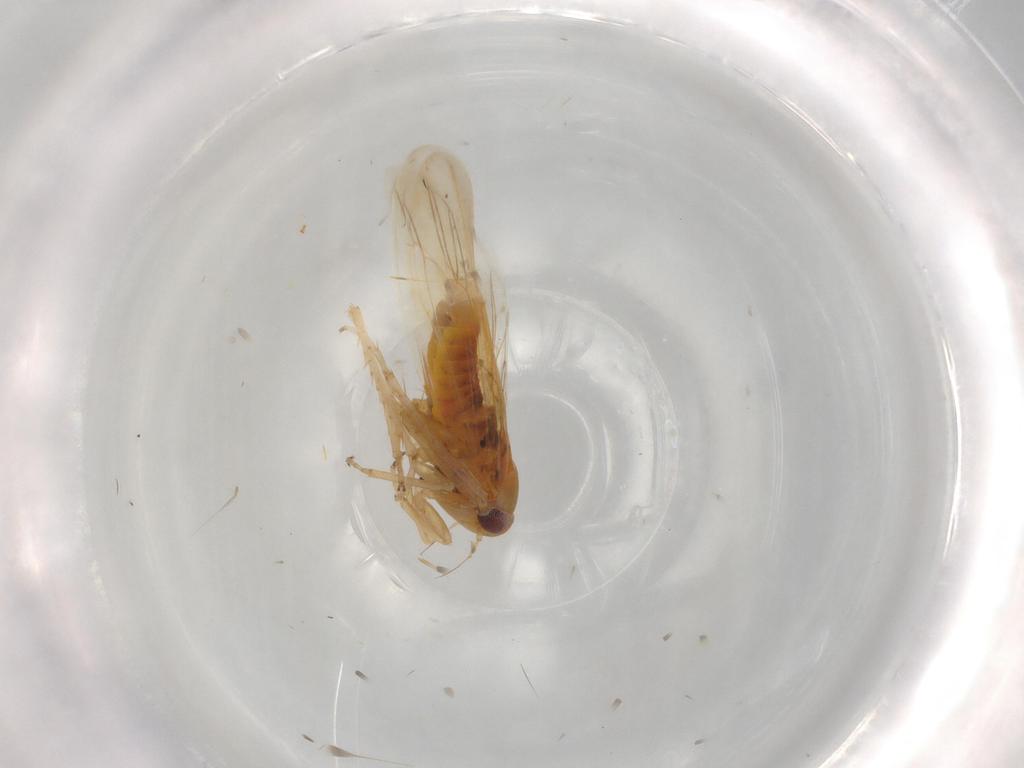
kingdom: Animalia
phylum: Arthropoda
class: Insecta
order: Hemiptera
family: Cicadellidae
